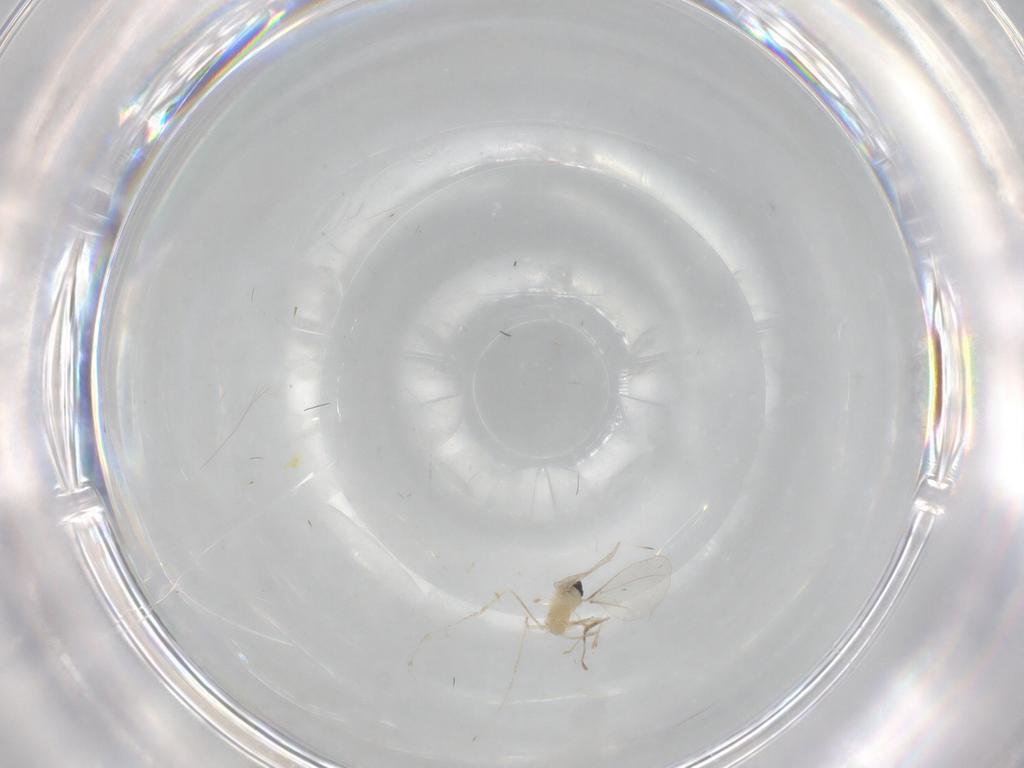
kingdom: Animalia
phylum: Arthropoda
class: Insecta
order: Diptera
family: Cecidomyiidae
